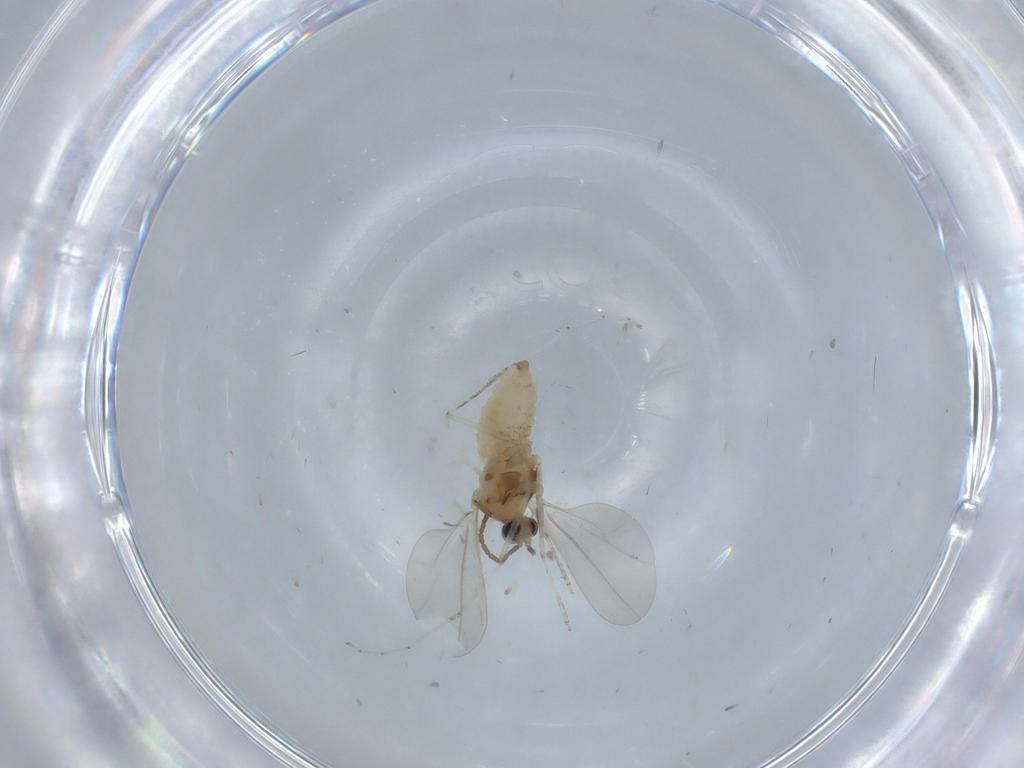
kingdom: Animalia
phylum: Arthropoda
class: Insecta
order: Diptera
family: Cecidomyiidae
